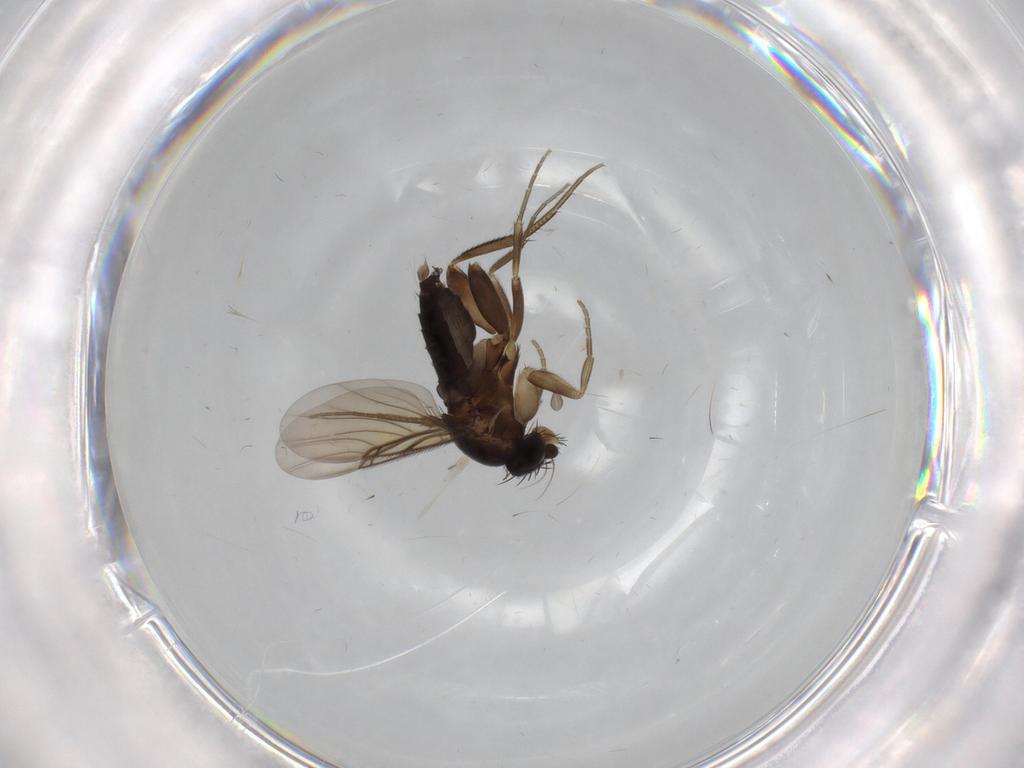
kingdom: Animalia
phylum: Arthropoda
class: Insecta
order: Diptera
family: Phoridae
